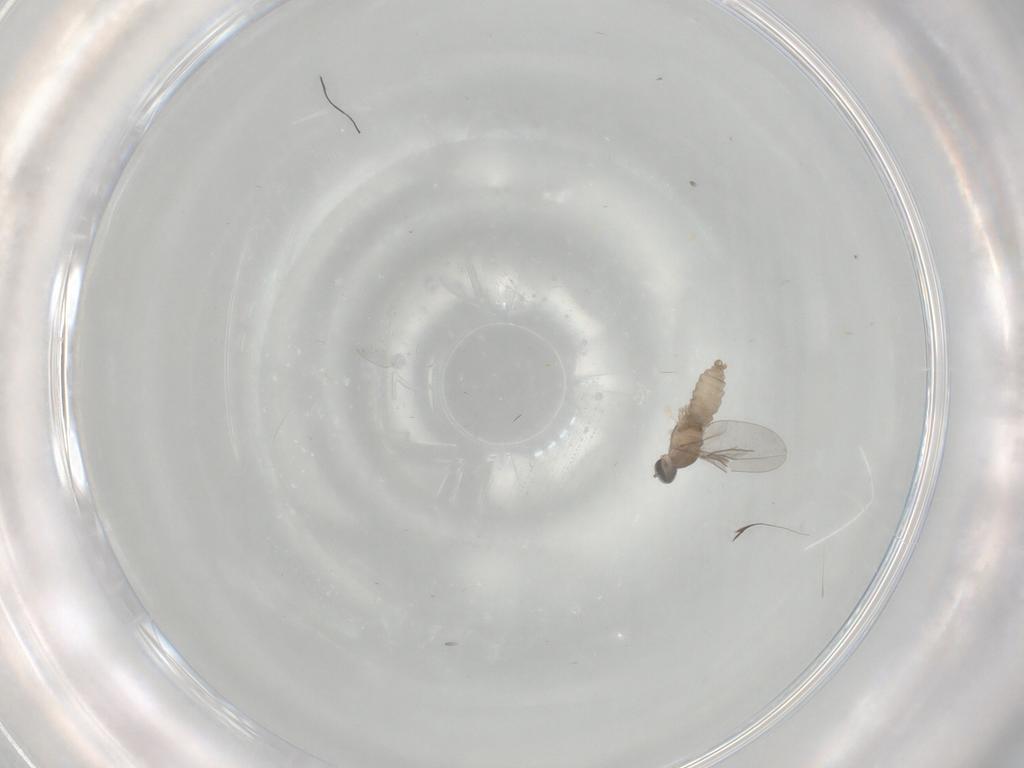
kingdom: Animalia
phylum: Arthropoda
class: Insecta
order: Diptera
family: Cecidomyiidae
